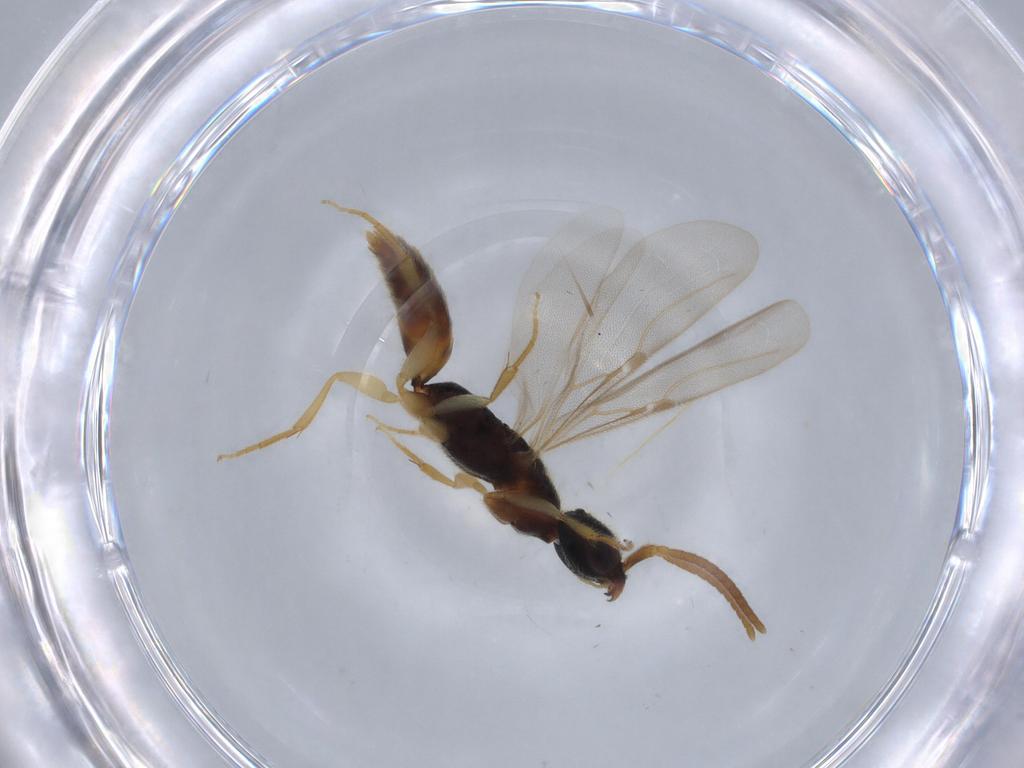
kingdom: Animalia
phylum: Arthropoda
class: Insecta
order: Hymenoptera
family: Bethylidae
